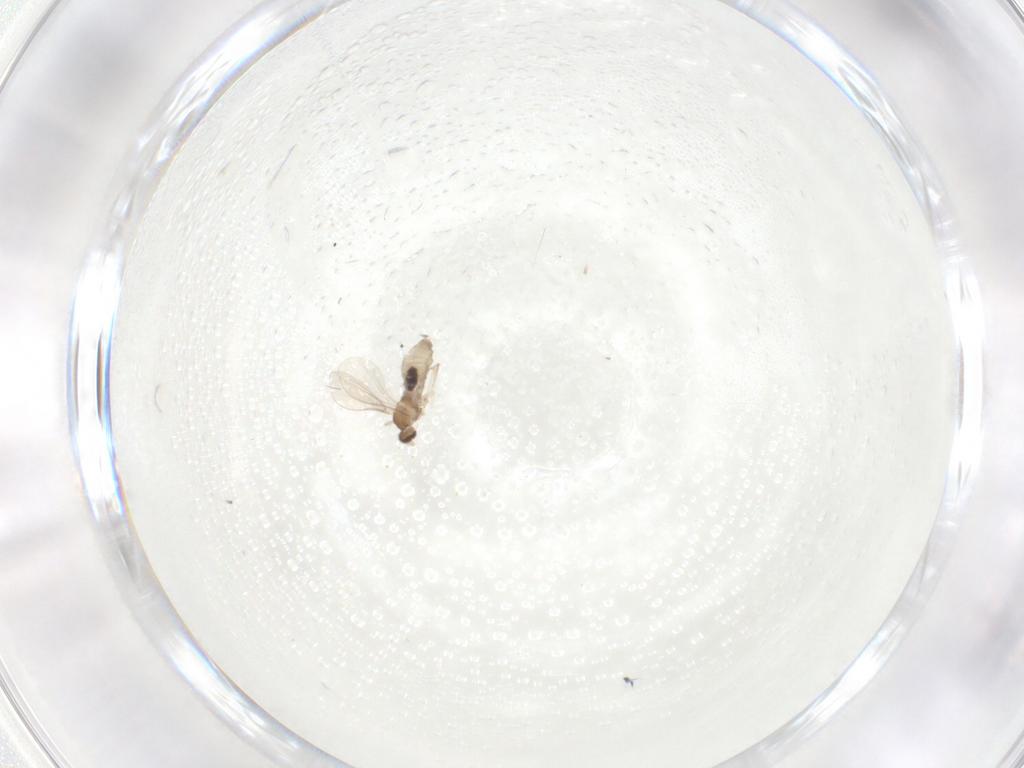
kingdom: Animalia
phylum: Arthropoda
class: Insecta
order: Diptera
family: Cecidomyiidae
